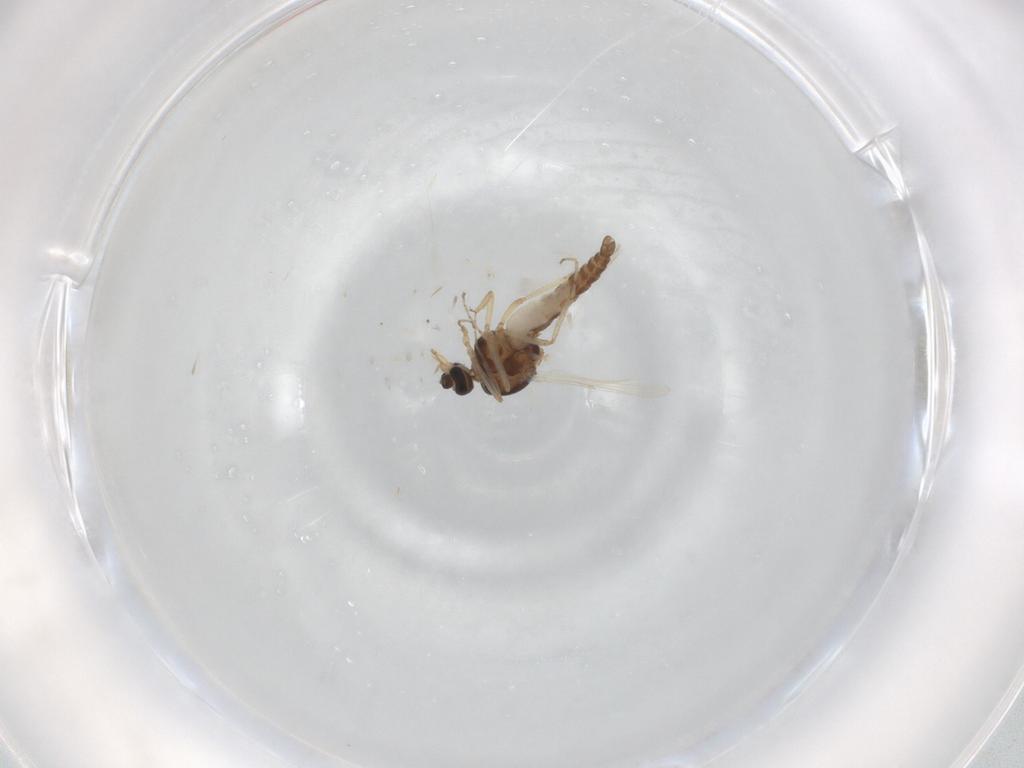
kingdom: Animalia
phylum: Arthropoda
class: Insecta
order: Diptera
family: Ceratopogonidae
